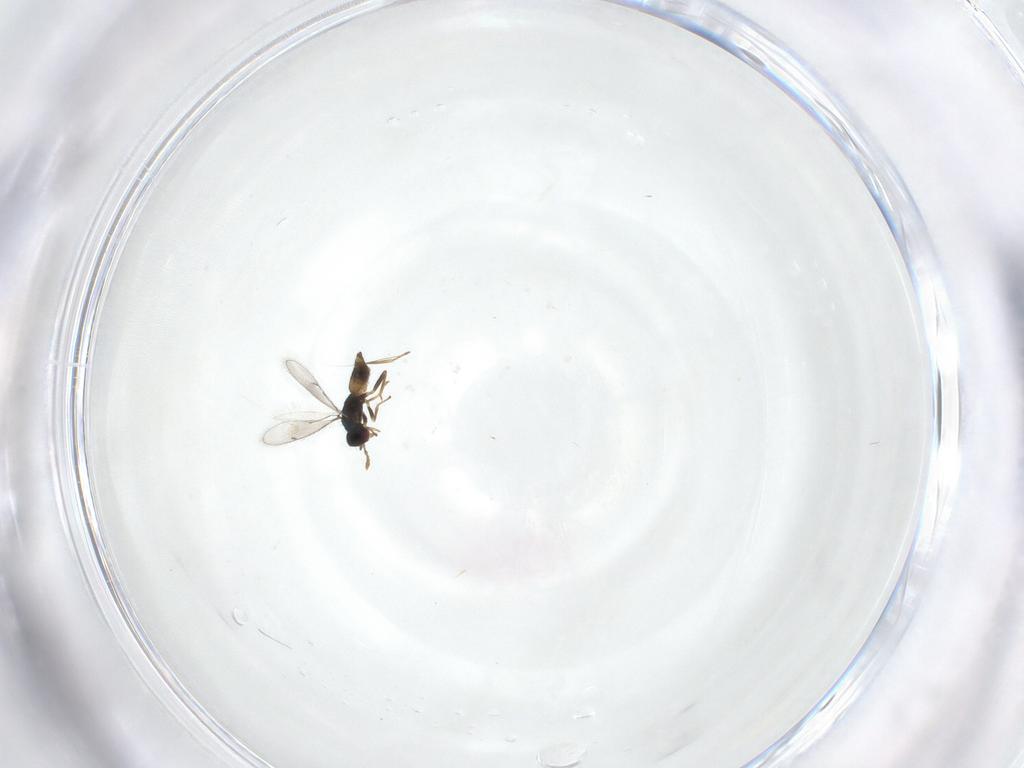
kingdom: Animalia
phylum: Arthropoda
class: Insecta
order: Hymenoptera
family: Eulophidae
